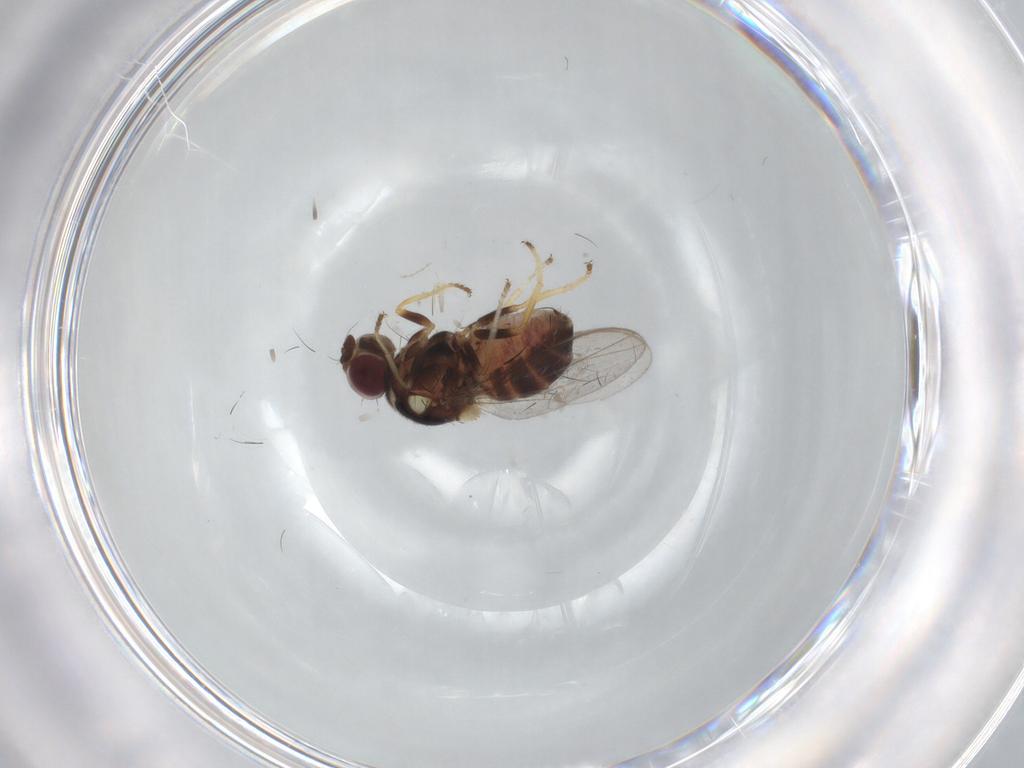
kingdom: Animalia
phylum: Arthropoda
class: Insecta
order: Diptera
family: Chloropidae
